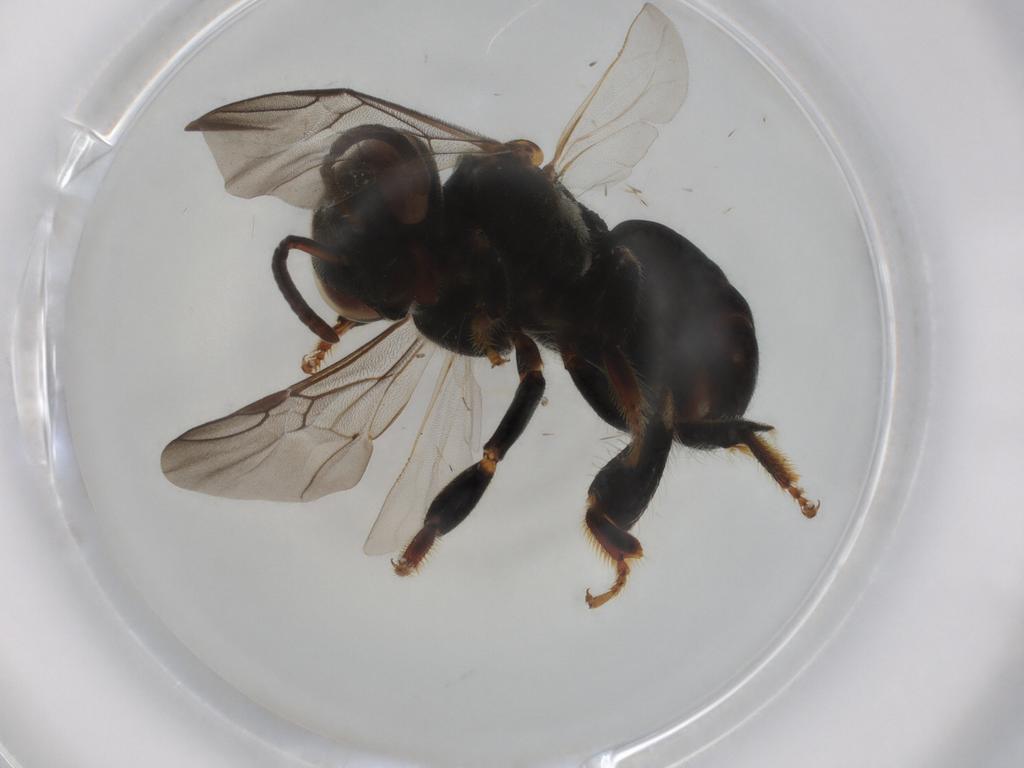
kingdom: Animalia
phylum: Arthropoda
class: Insecta
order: Hymenoptera
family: Apidae
